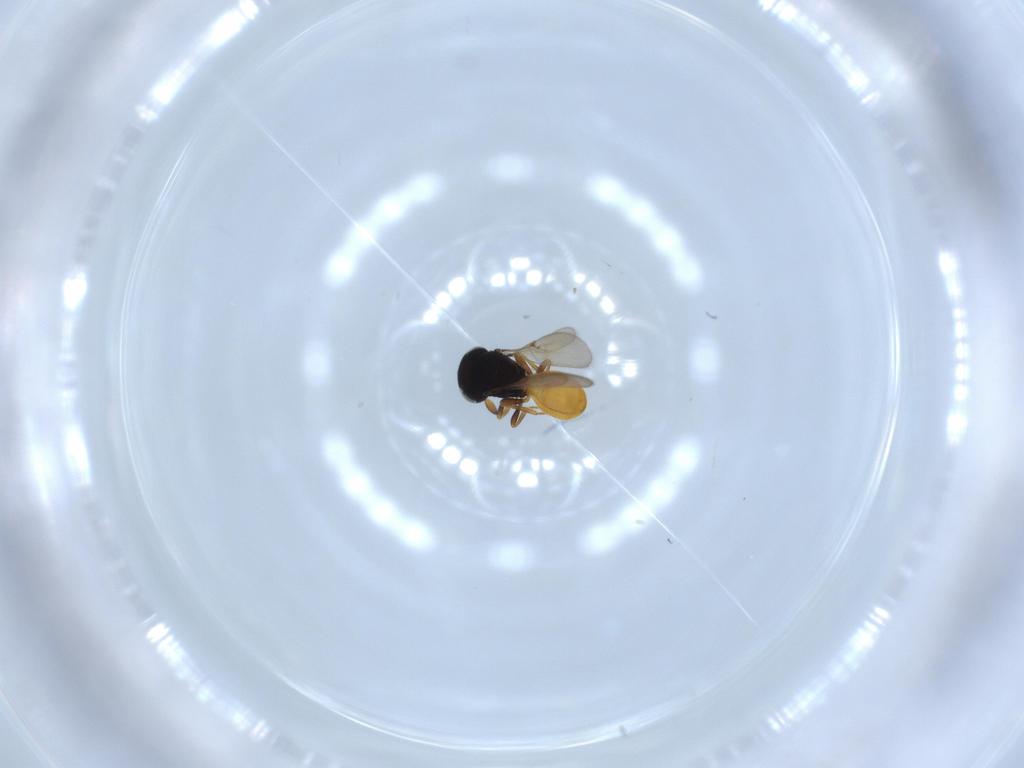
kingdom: Animalia
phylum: Arthropoda
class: Insecta
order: Hymenoptera
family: Scelionidae
